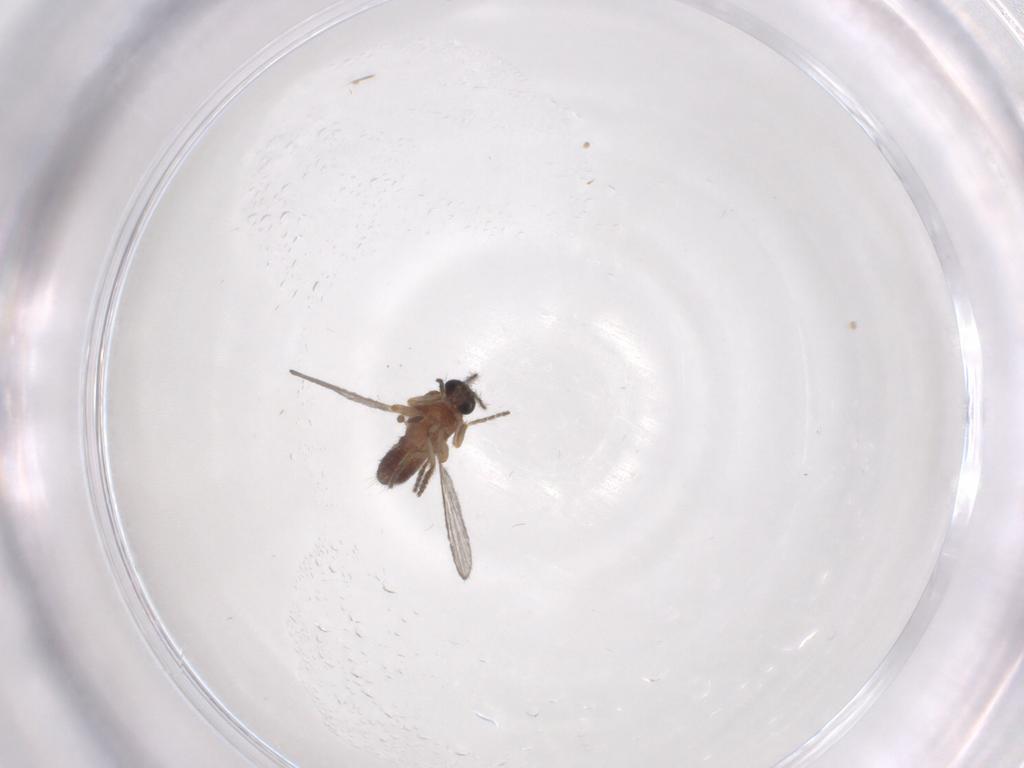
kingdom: Animalia
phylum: Arthropoda
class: Insecta
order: Diptera
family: Ceratopogonidae
